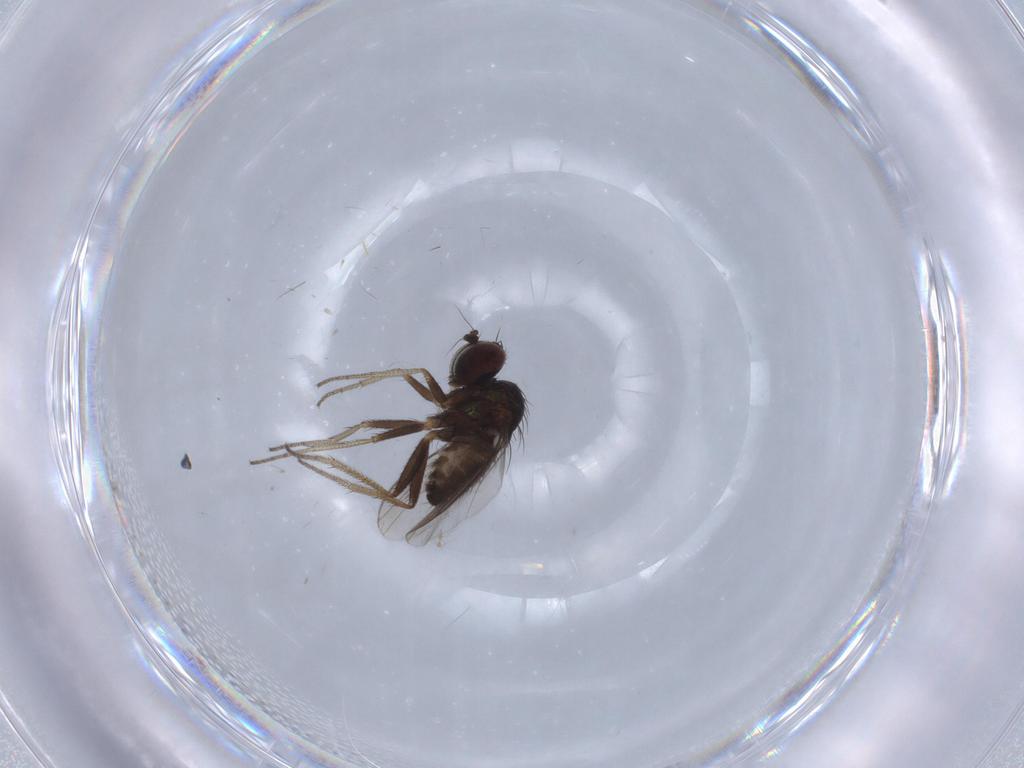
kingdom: Animalia
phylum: Arthropoda
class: Insecta
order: Diptera
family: Chironomidae
